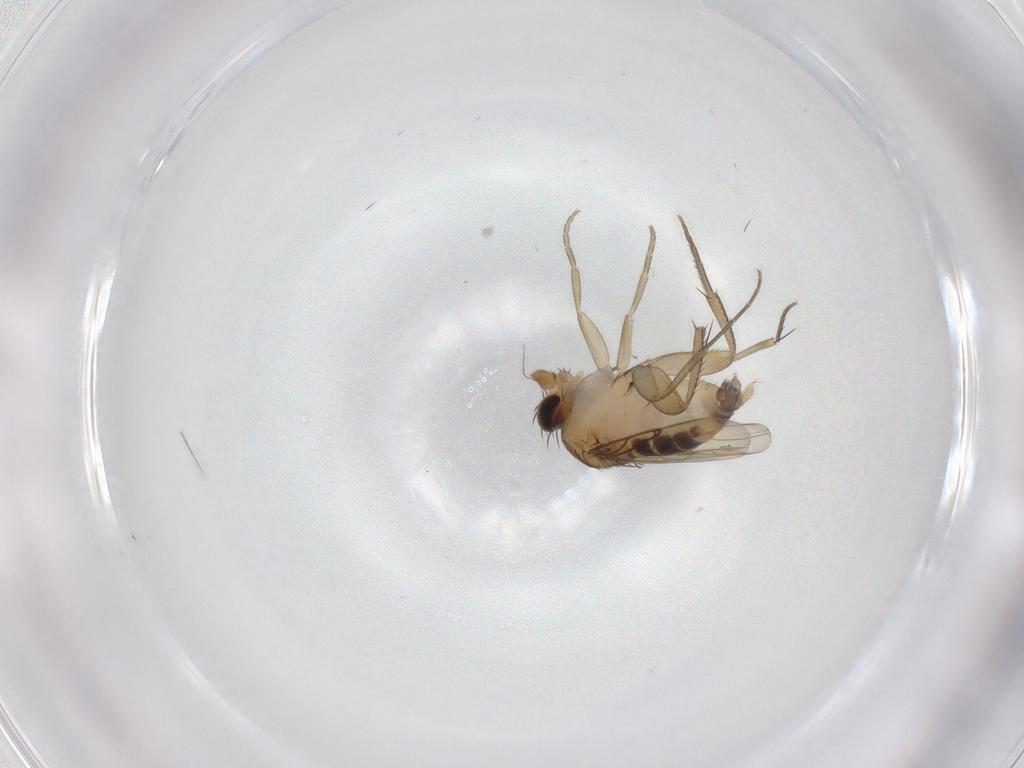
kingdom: Animalia
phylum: Arthropoda
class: Insecta
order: Diptera
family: Phoridae
